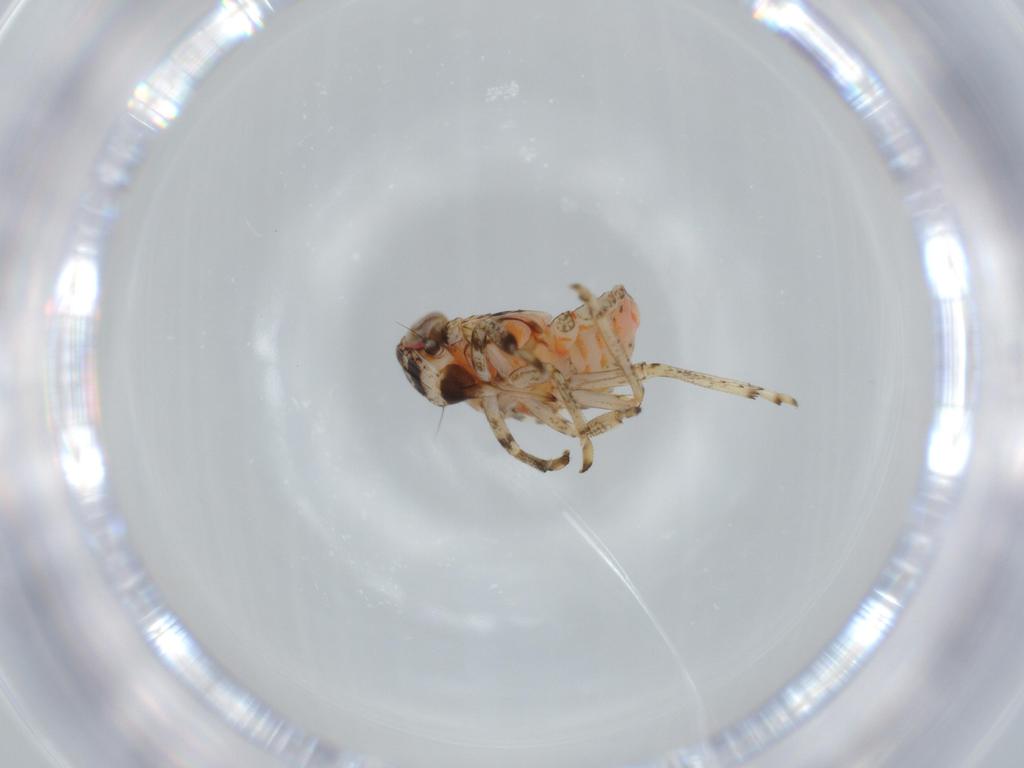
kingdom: Animalia
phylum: Arthropoda
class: Insecta
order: Hemiptera
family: Issidae
